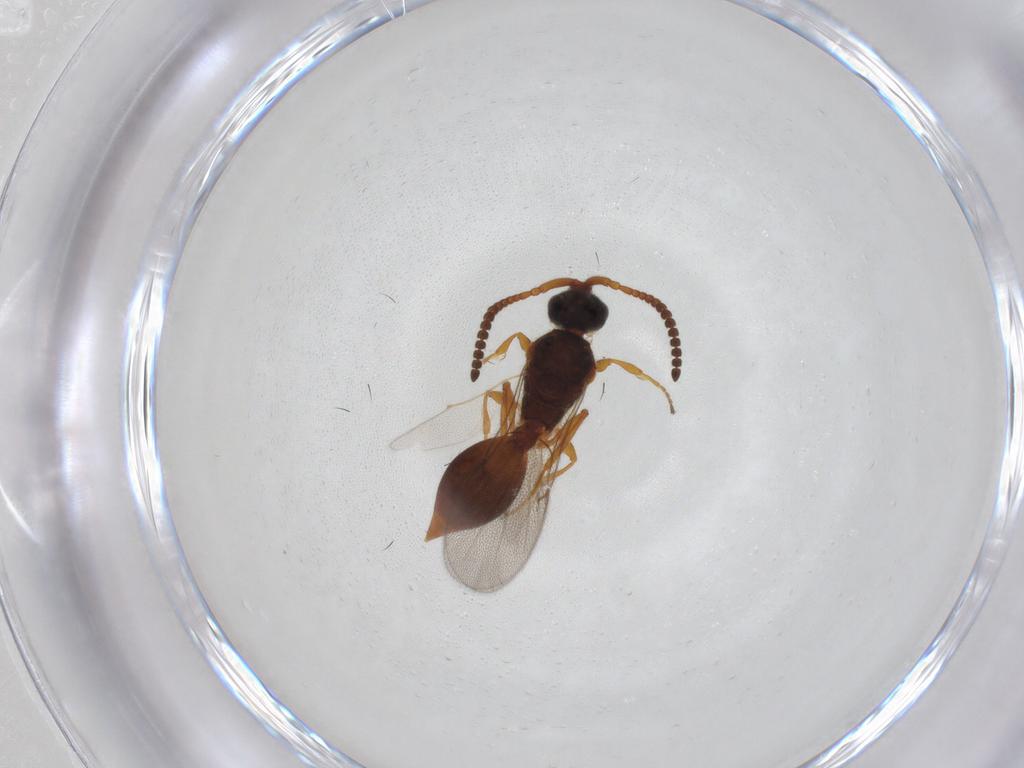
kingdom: Animalia
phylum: Arthropoda
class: Insecta
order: Hymenoptera
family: Diapriidae
